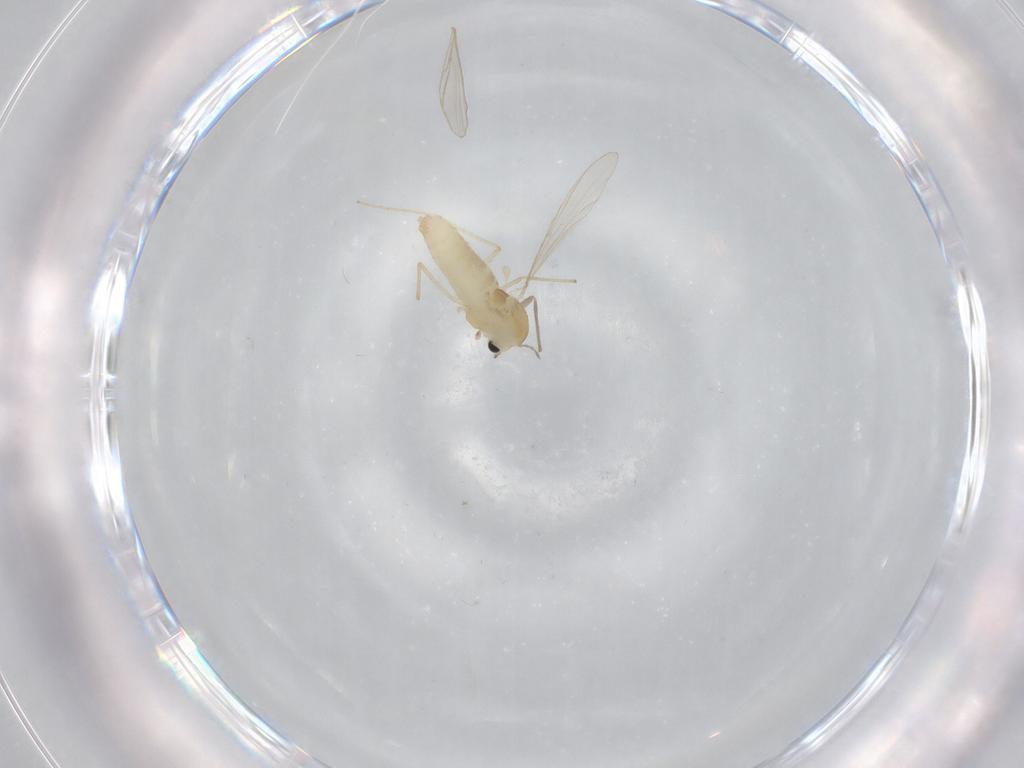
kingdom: Animalia
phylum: Arthropoda
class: Insecta
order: Diptera
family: Chironomidae
